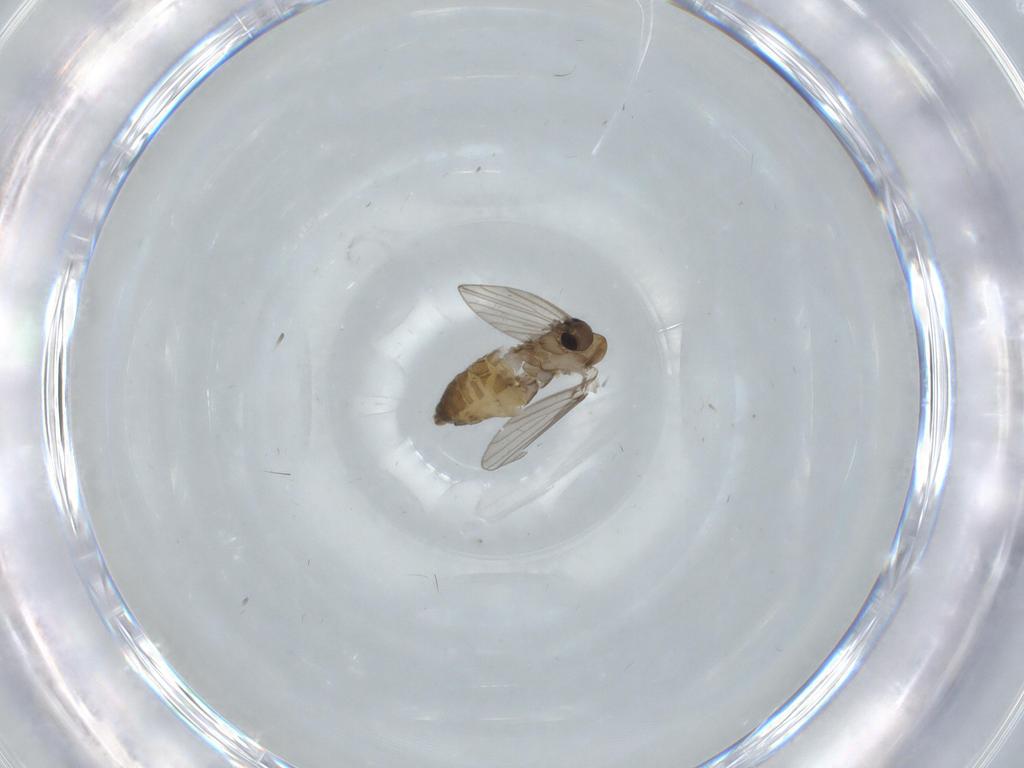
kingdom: Animalia
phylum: Arthropoda
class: Insecta
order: Diptera
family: Psychodidae
